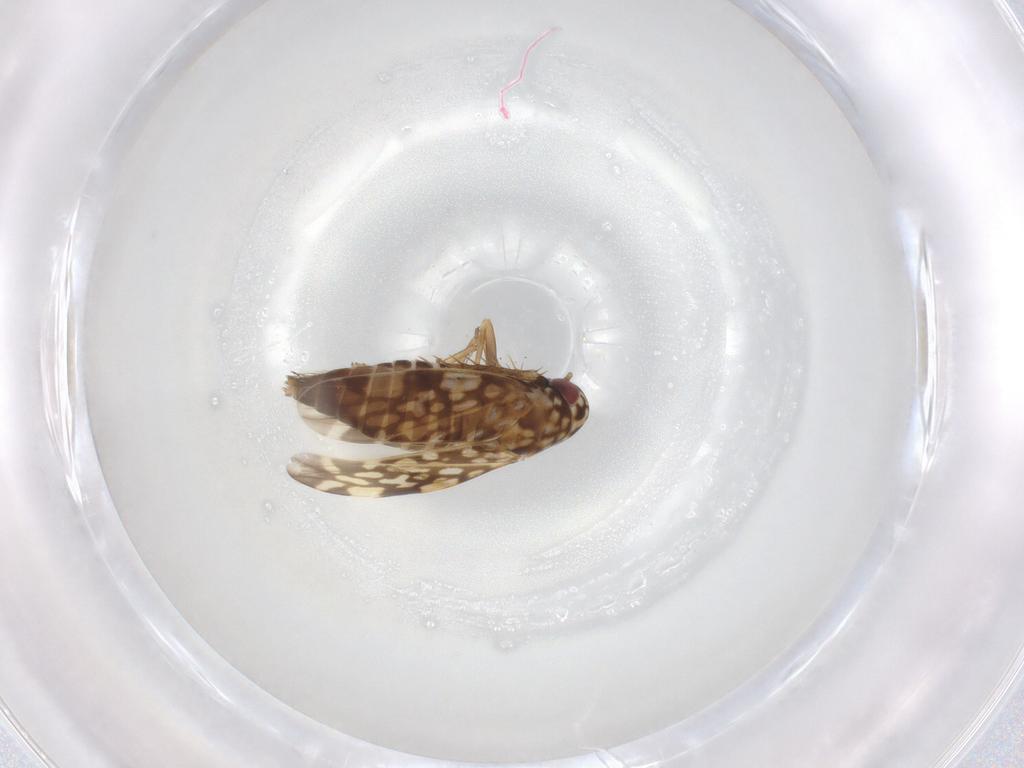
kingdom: Animalia
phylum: Arthropoda
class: Insecta
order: Hemiptera
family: Cicadellidae
